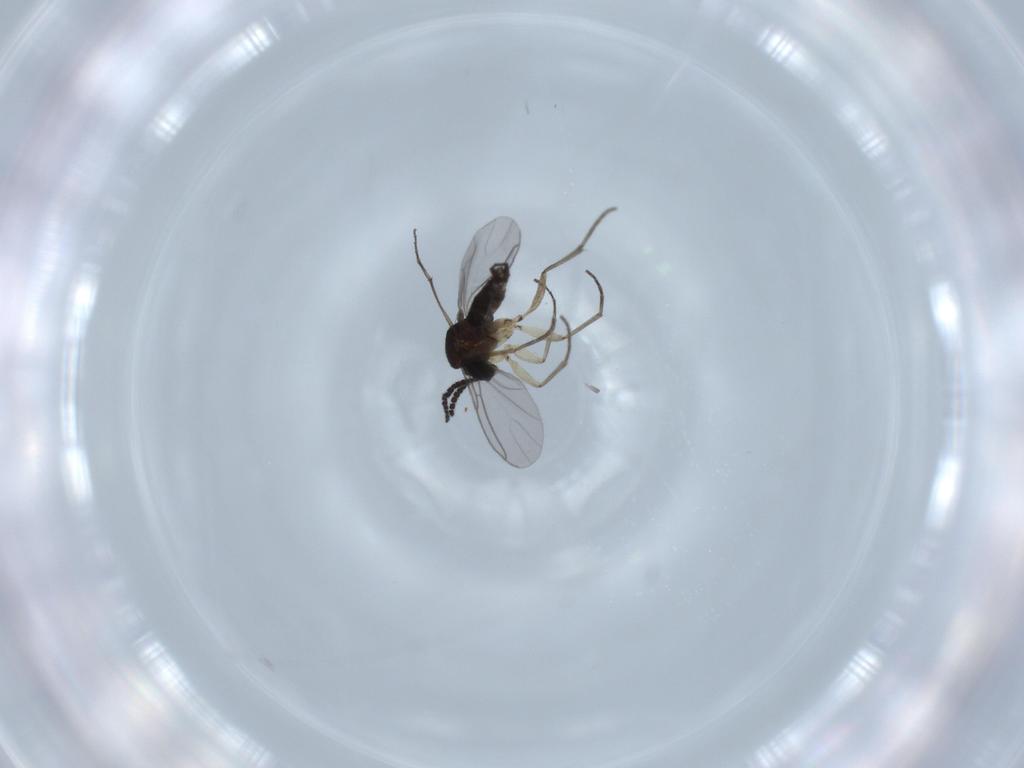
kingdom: Animalia
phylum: Arthropoda
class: Insecta
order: Diptera
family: Sciaridae
